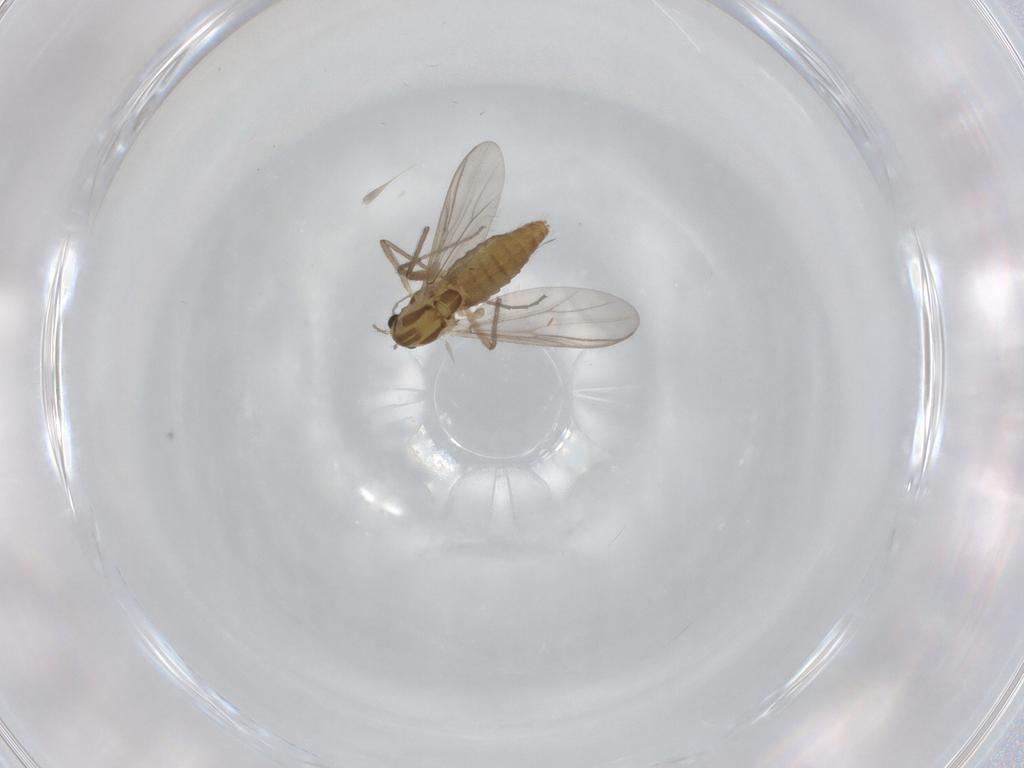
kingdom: Animalia
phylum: Arthropoda
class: Insecta
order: Diptera
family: Chironomidae
